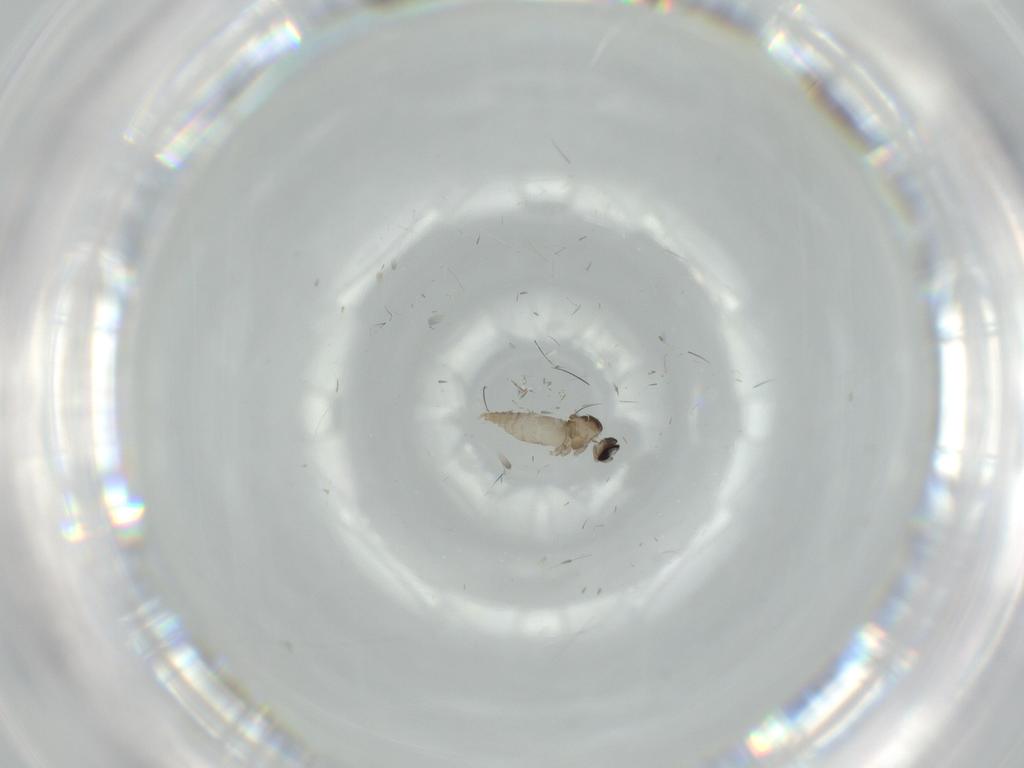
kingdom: Animalia
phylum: Arthropoda
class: Insecta
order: Diptera
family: Cecidomyiidae
